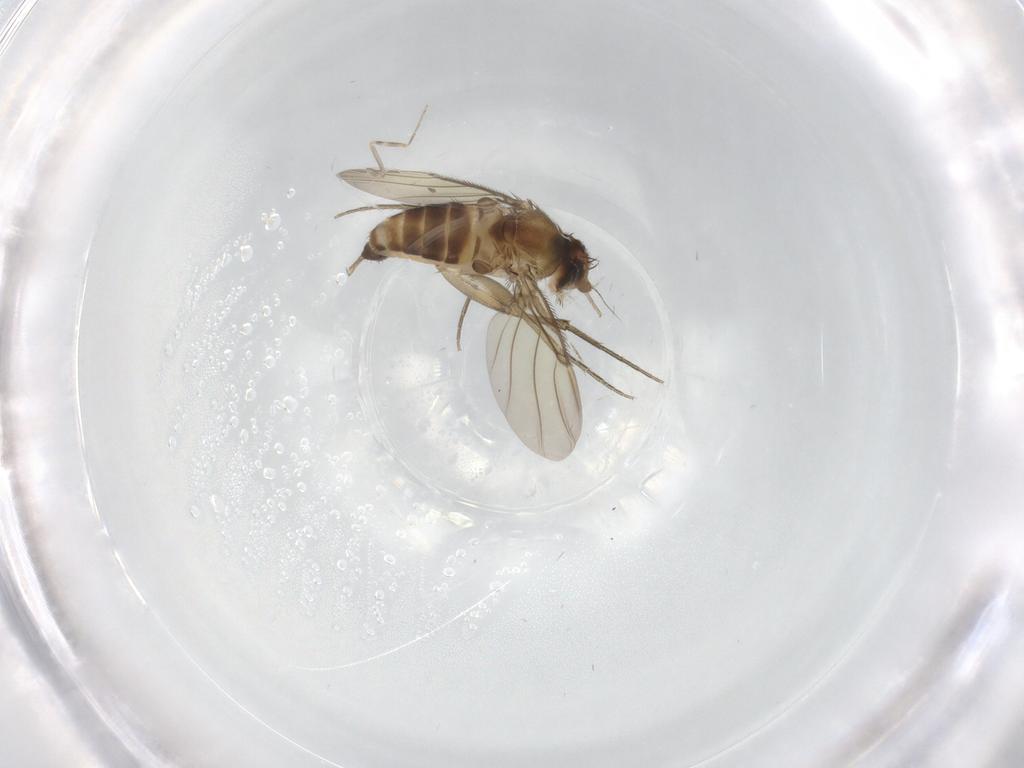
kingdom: Animalia
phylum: Arthropoda
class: Insecta
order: Diptera
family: Phoridae
